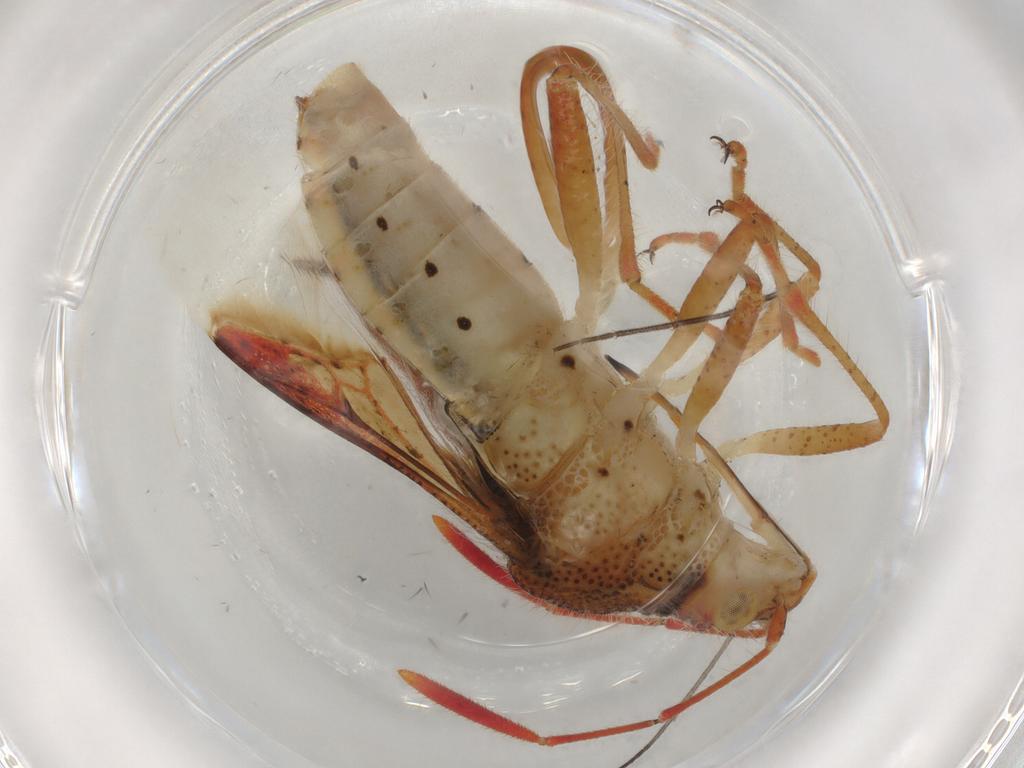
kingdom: Animalia
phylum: Arthropoda
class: Insecta
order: Hemiptera
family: Rhopalidae
